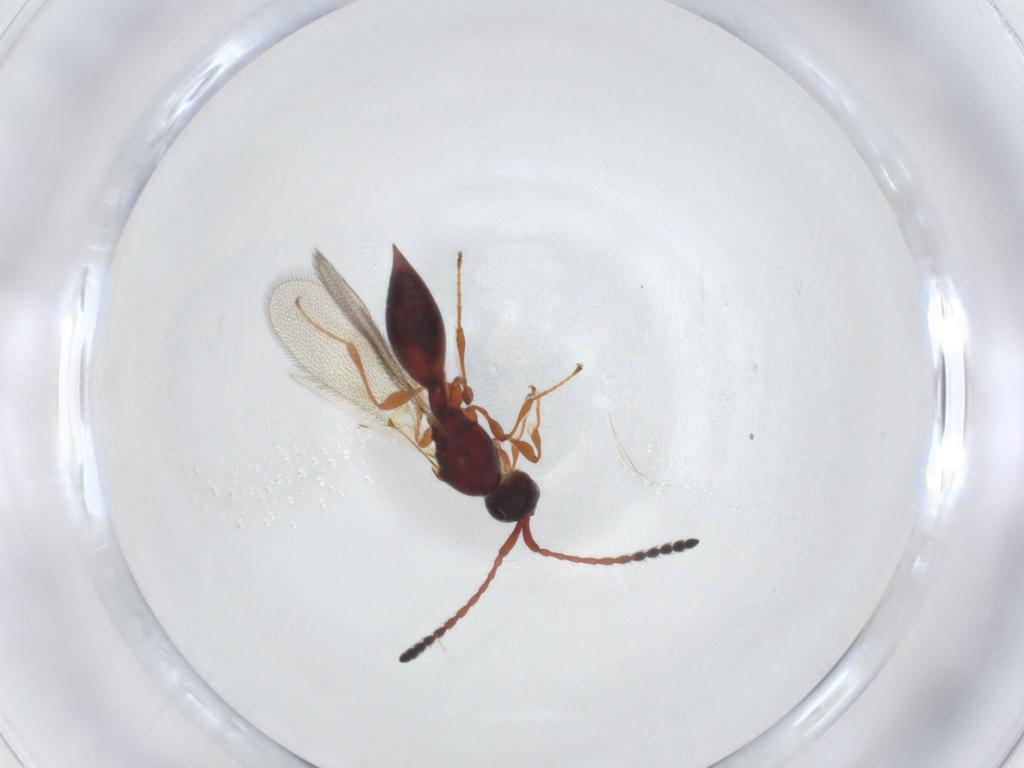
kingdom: Animalia
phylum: Arthropoda
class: Insecta
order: Hymenoptera
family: Diapriidae
